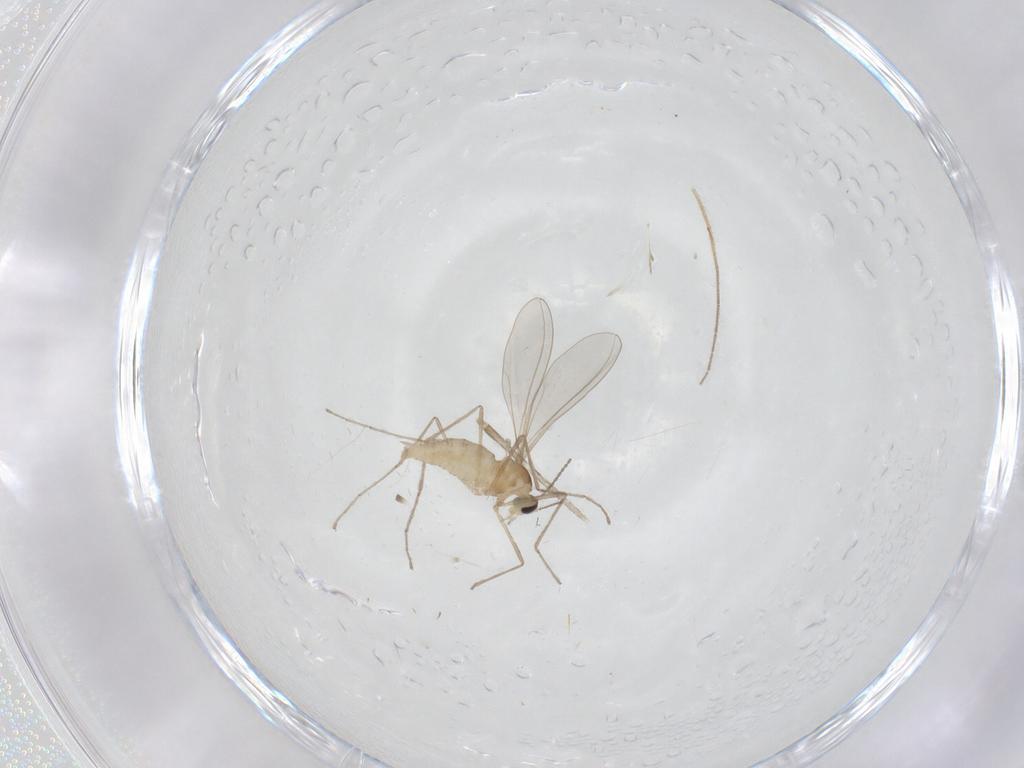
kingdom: Animalia
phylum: Arthropoda
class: Insecta
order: Diptera
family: Cecidomyiidae
